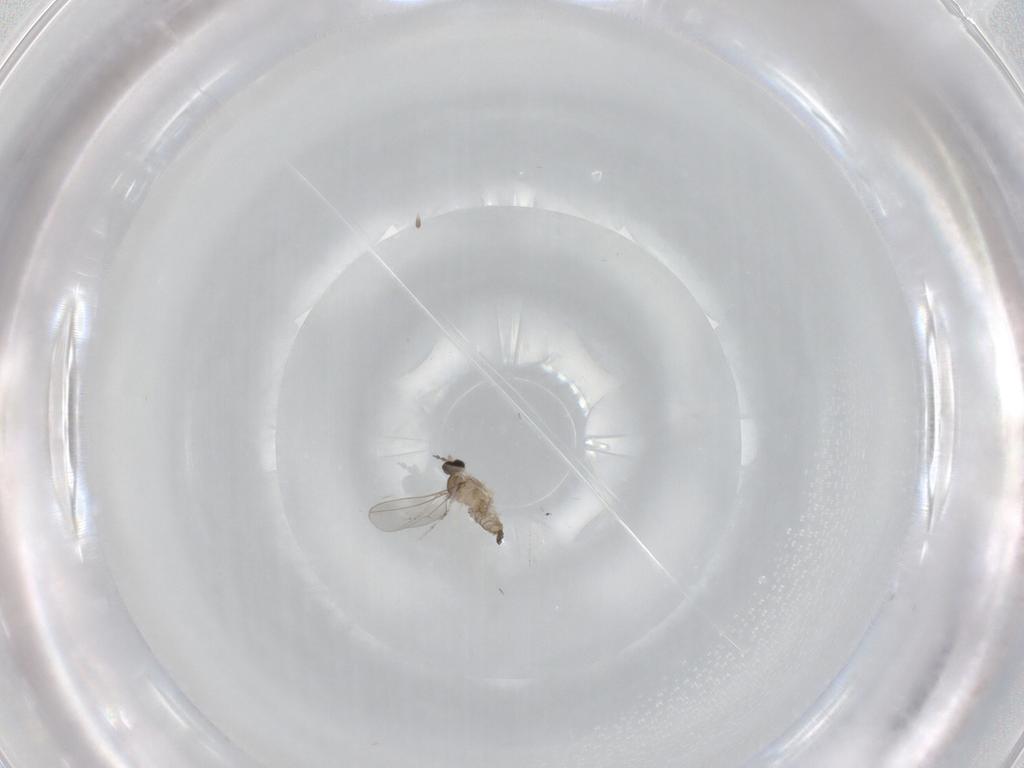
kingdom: Animalia
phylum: Arthropoda
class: Insecta
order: Diptera
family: Cecidomyiidae
